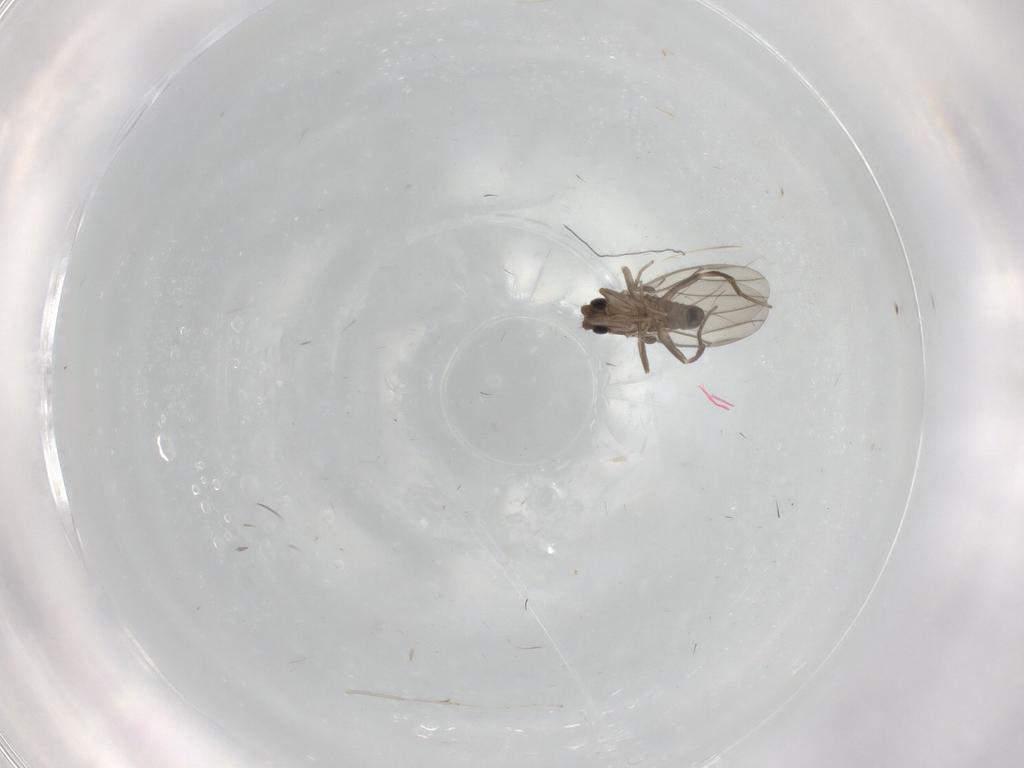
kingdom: Animalia
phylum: Arthropoda
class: Insecta
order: Diptera
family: Cecidomyiidae
